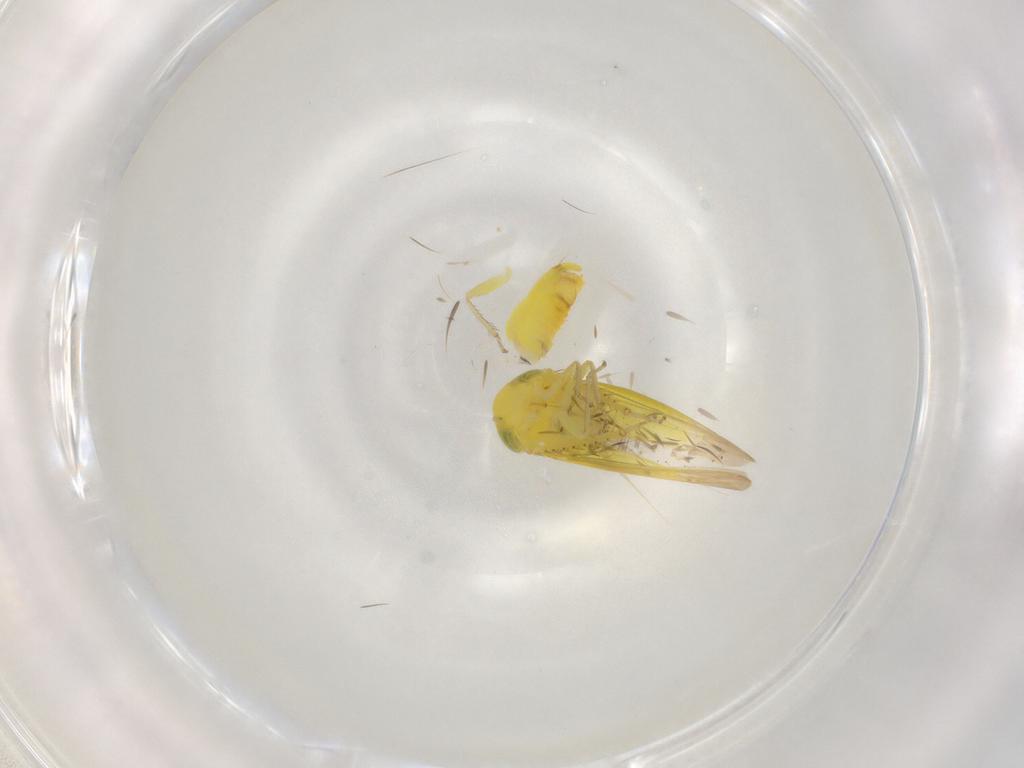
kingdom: Animalia
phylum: Arthropoda
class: Insecta
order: Hemiptera
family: Cicadellidae
